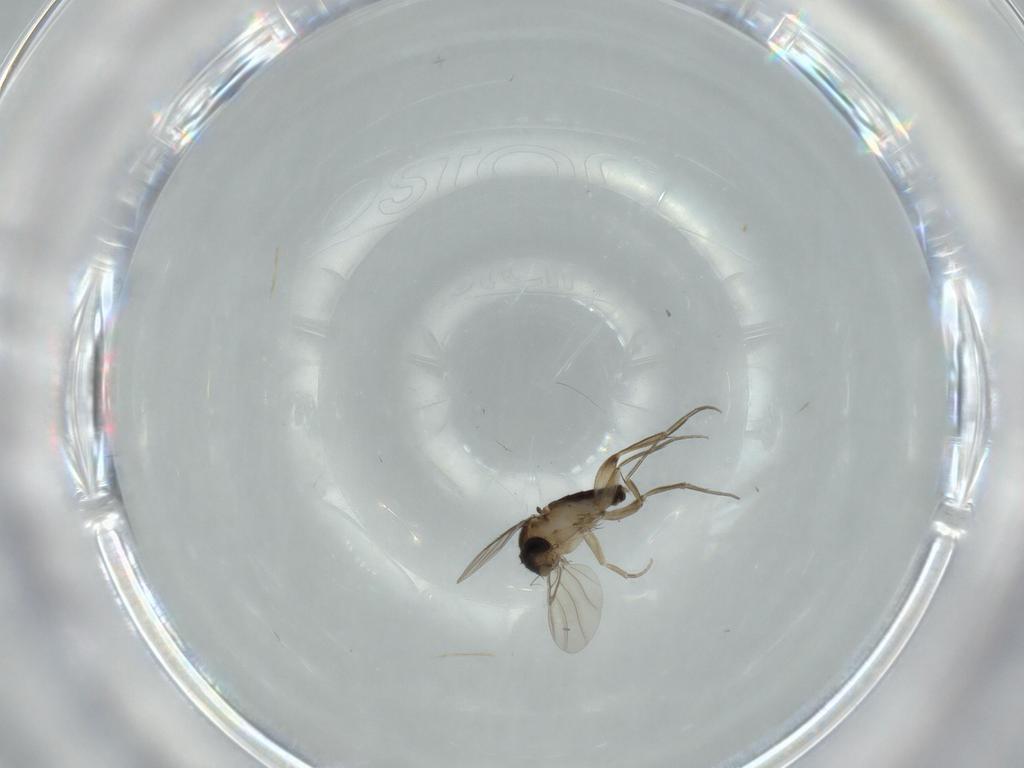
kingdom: Animalia
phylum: Arthropoda
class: Insecta
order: Diptera
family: Phoridae
